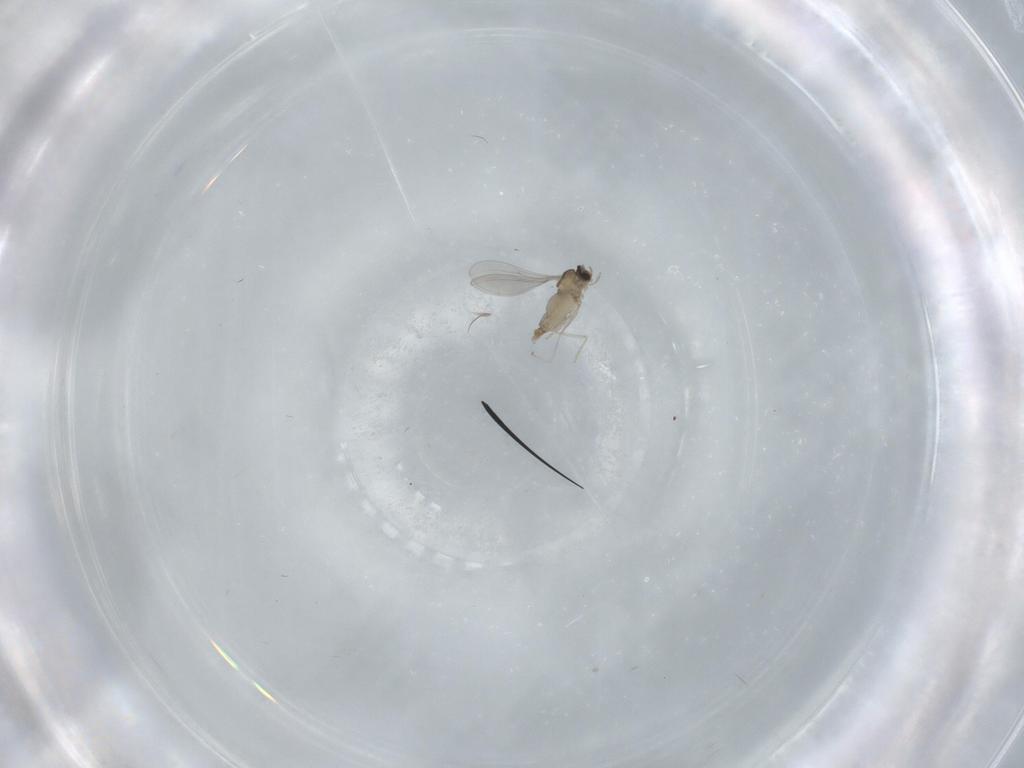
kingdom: Animalia
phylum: Arthropoda
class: Insecta
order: Diptera
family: Cecidomyiidae
